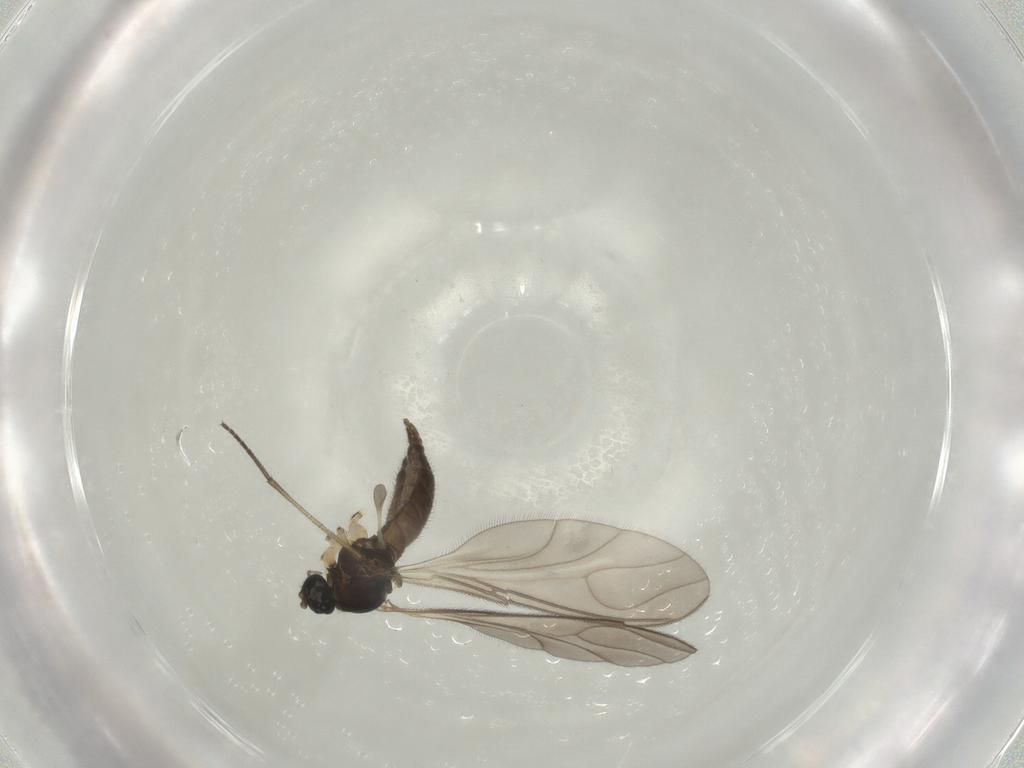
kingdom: Animalia
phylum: Arthropoda
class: Insecta
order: Diptera
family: Sciaridae
